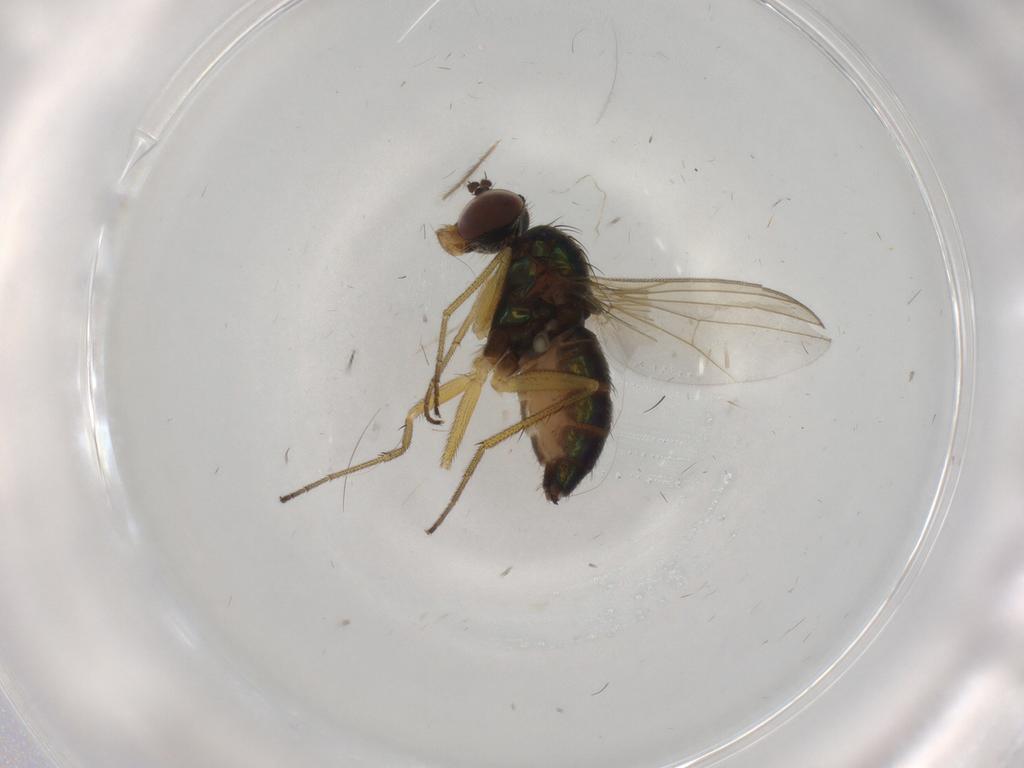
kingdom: Animalia
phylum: Arthropoda
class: Insecta
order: Diptera
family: Dolichopodidae
